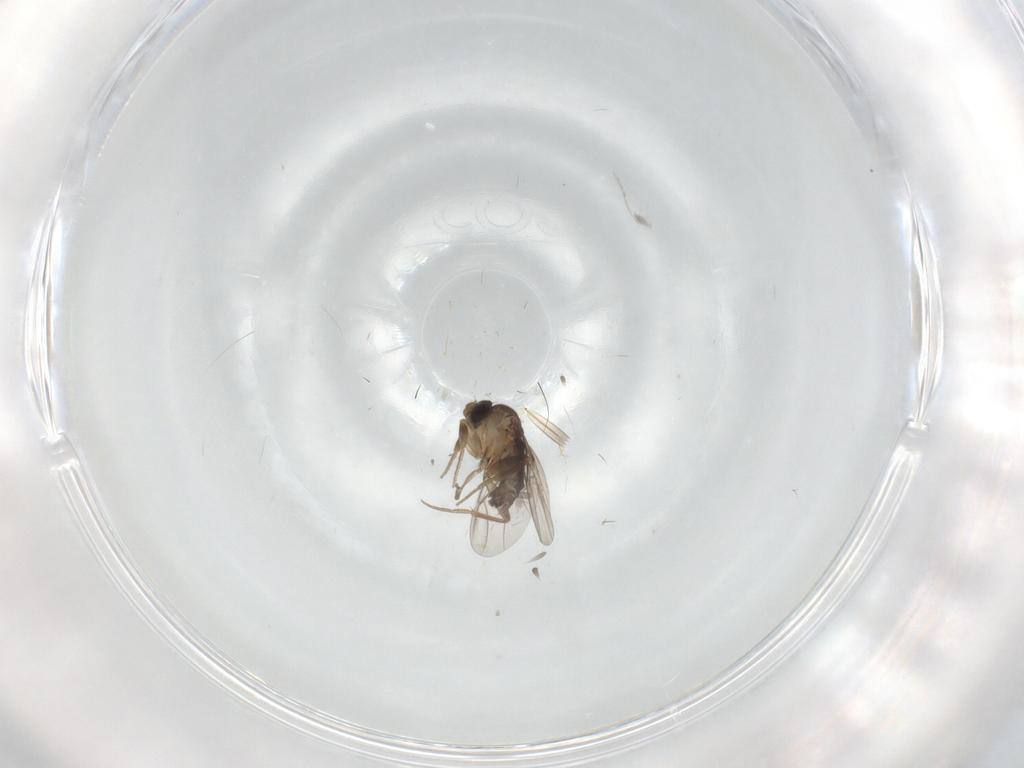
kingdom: Animalia
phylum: Arthropoda
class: Insecta
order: Diptera
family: Phoridae
